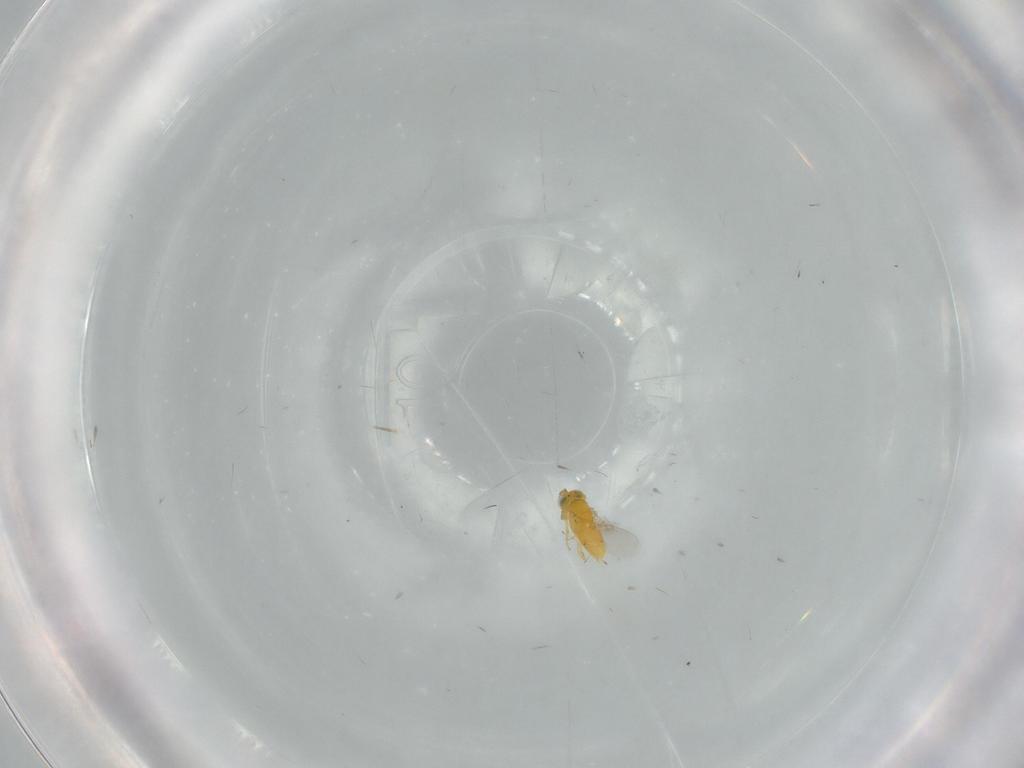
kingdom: Animalia
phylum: Arthropoda
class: Insecta
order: Hymenoptera
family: Encyrtidae
